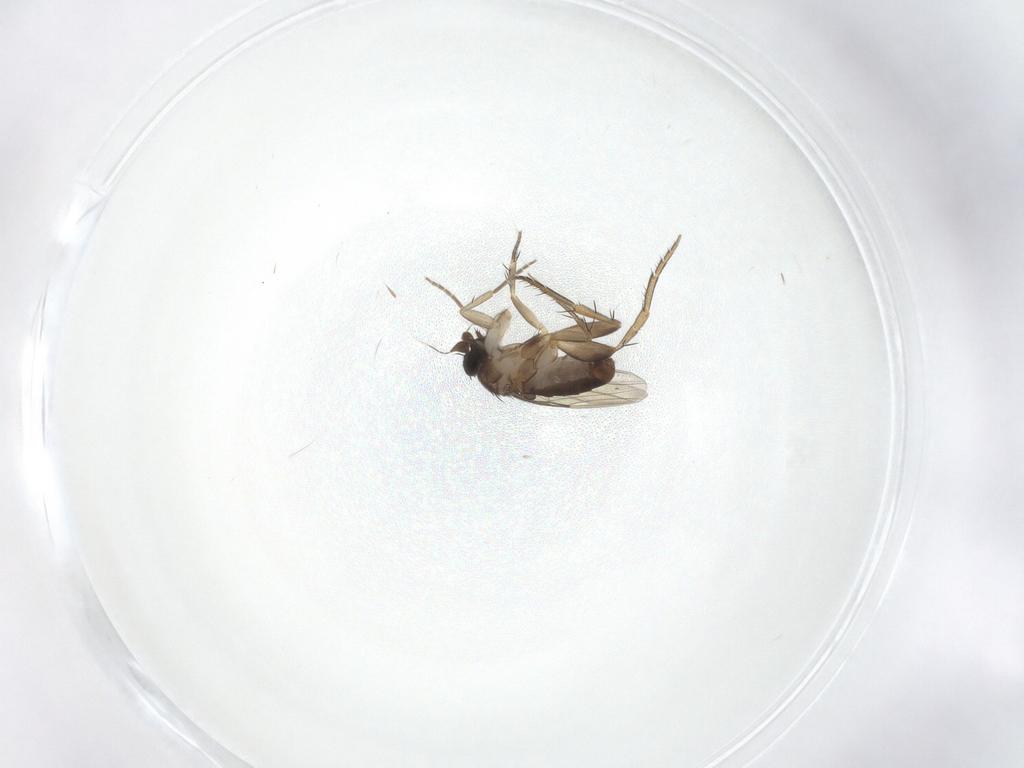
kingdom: Animalia
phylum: Arthropoda
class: Insecta
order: Diptera
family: Phoridae
